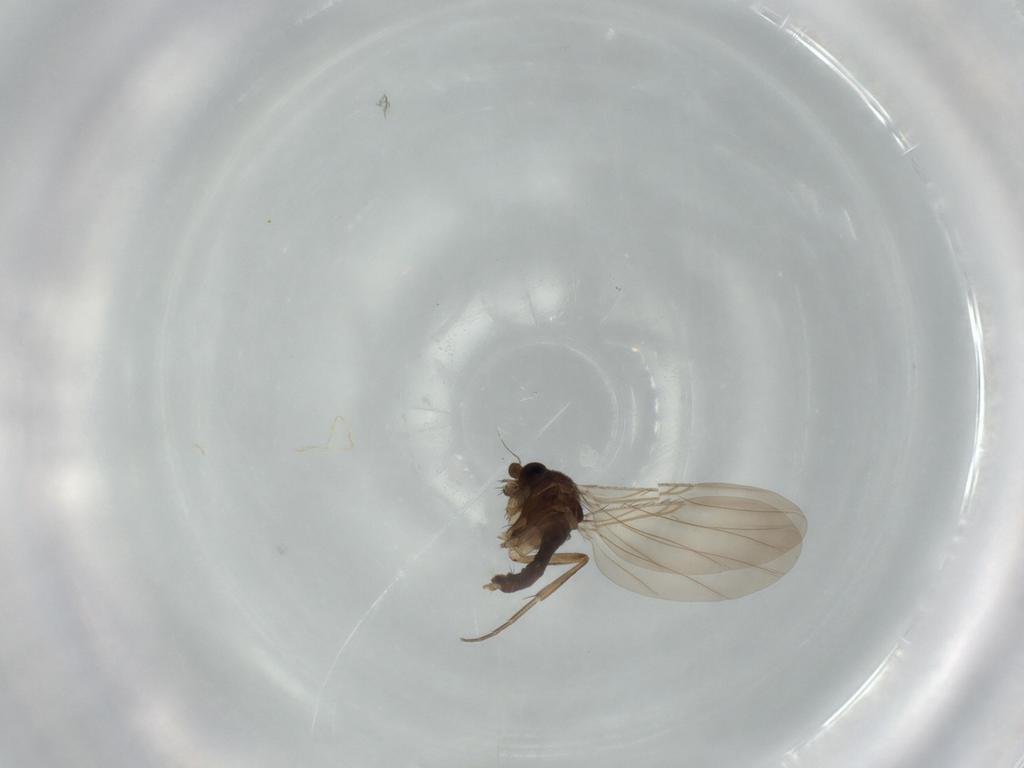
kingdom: Animalia
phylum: Arthropoda
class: Insecta
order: Diptera
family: Phoridae
